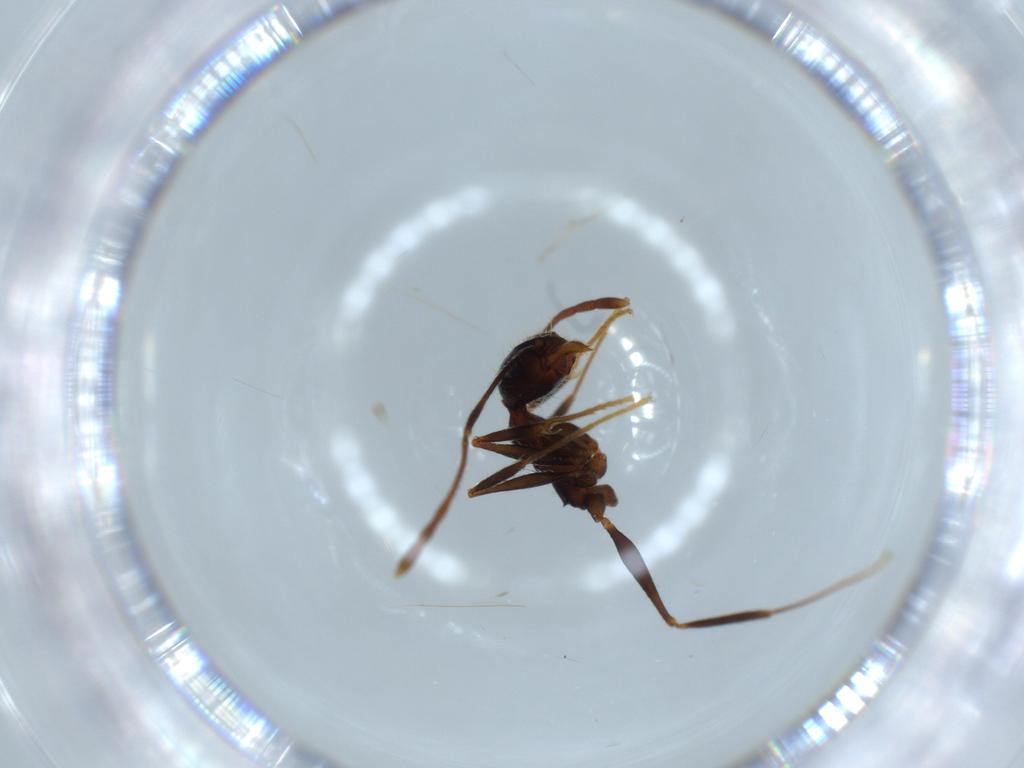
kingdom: Animalia
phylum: Arthropoda
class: Insecta
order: Hymenoptera
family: Formicidae
